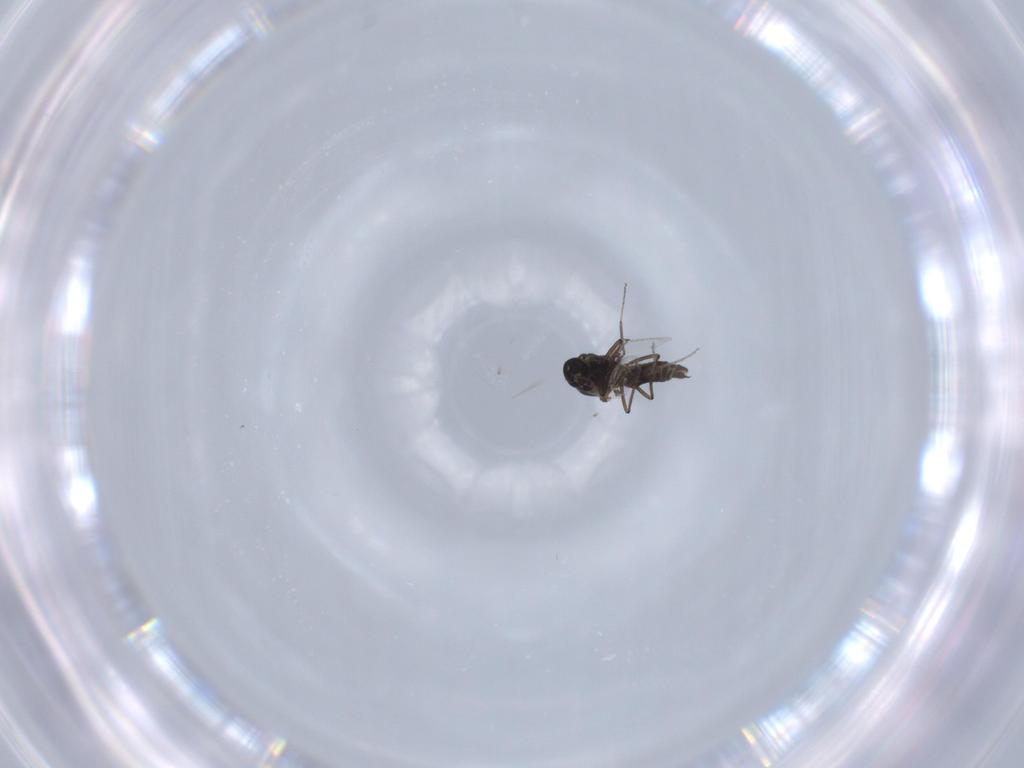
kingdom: Animalia
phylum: Arthropoda
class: Insecta
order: Diptera
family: Ceratopogonidae
